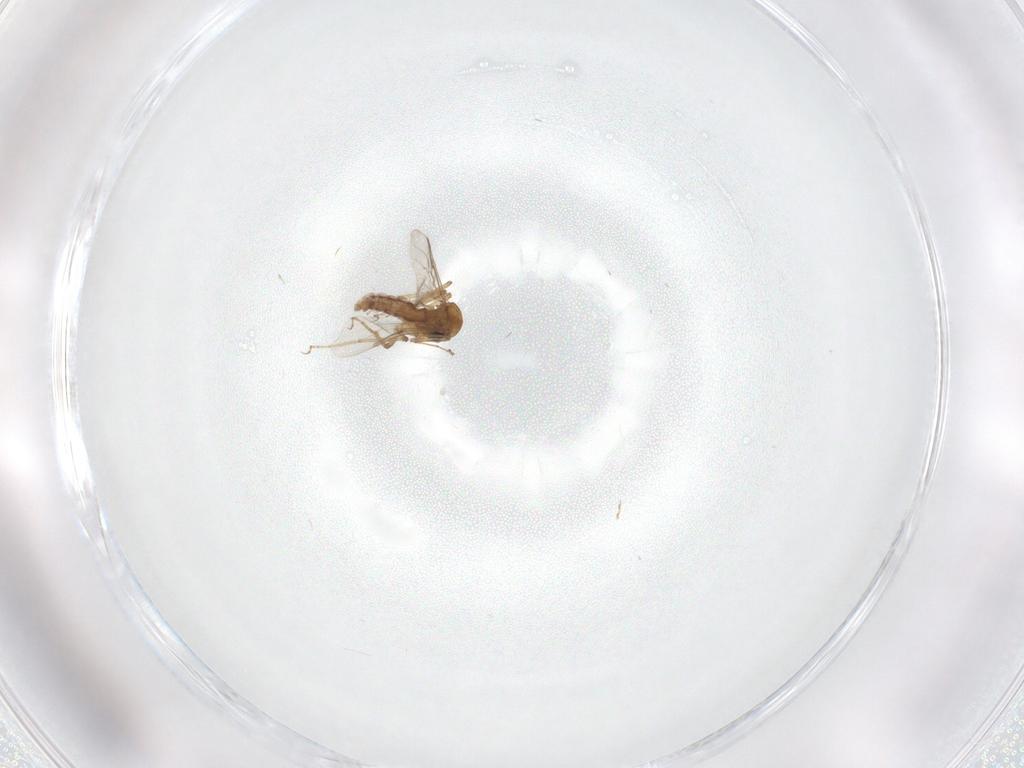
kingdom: Animalia
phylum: Arthropoda
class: Insecta
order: Diptera
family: Ceratopogonidae
